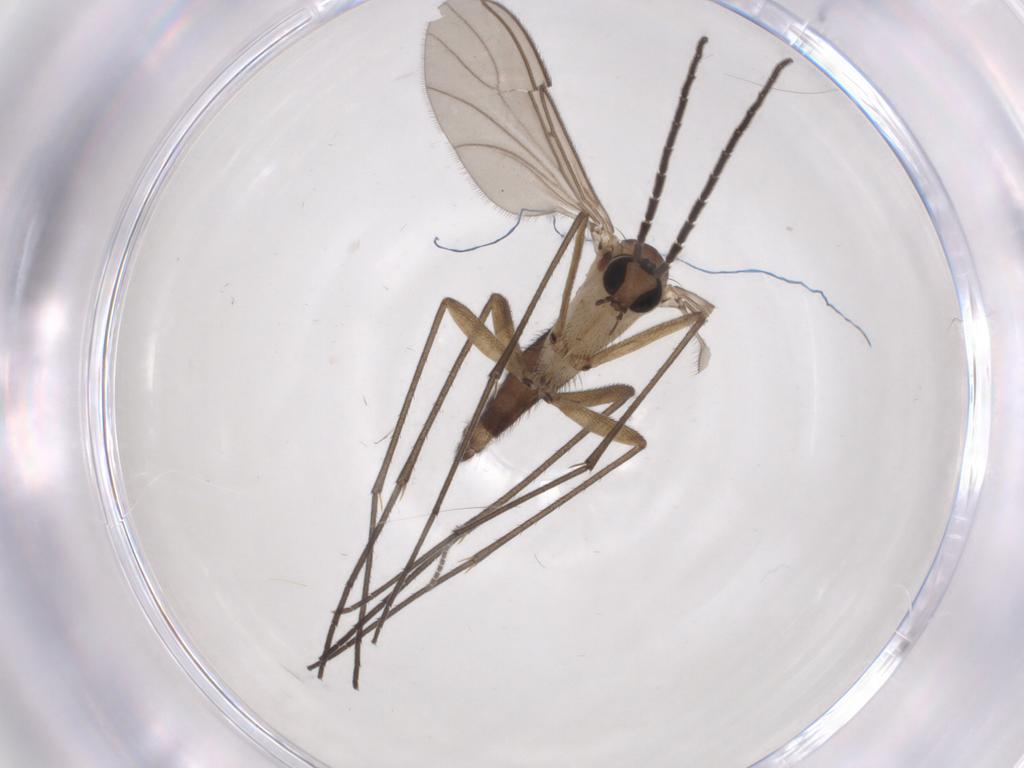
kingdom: Animalia
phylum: Arthropoda
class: Insecta
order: Diptera
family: Sciaridae
